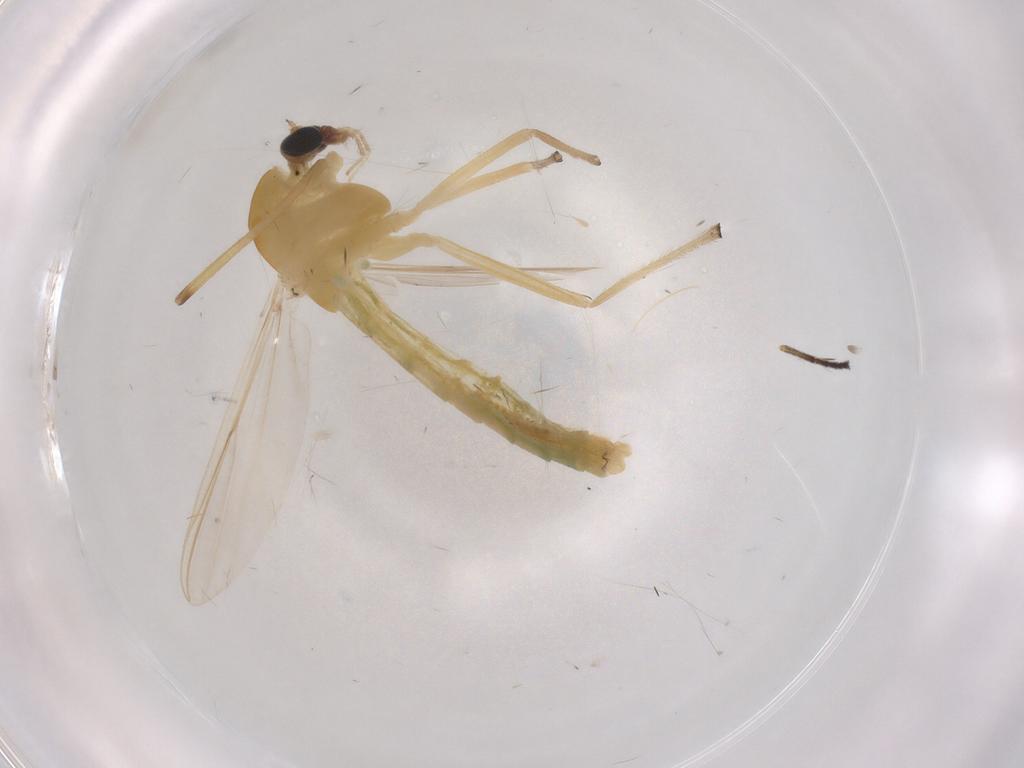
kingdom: Animalia
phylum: Arthropoda
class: Insecta
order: Diptera
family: Chironomidae
